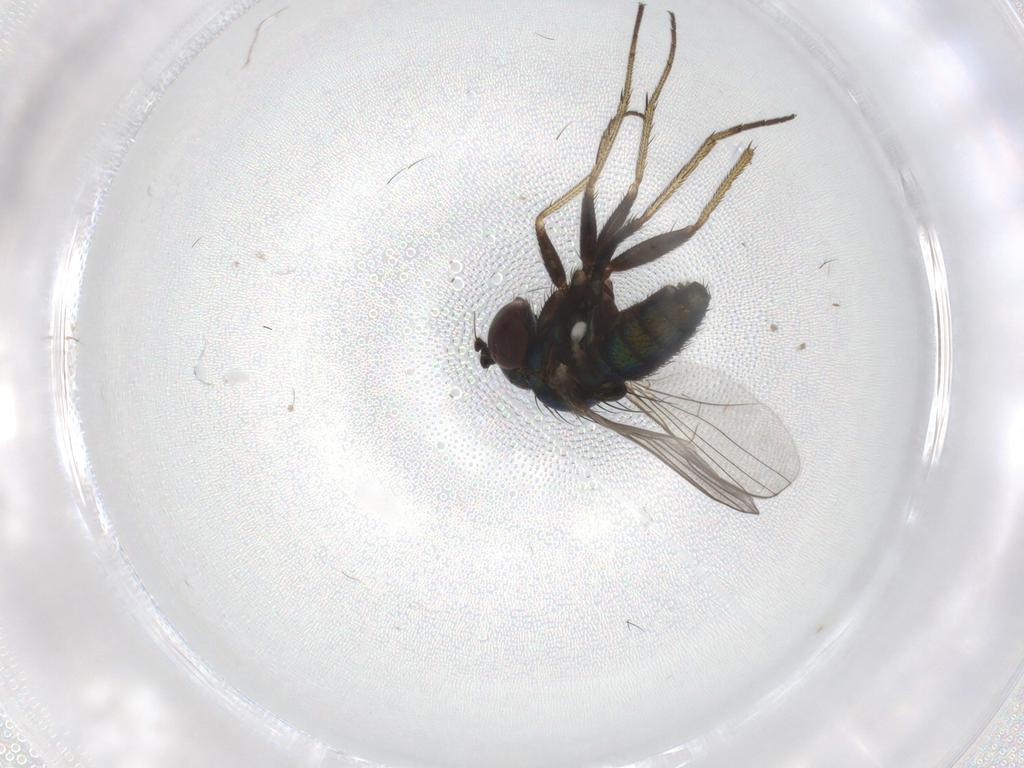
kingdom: Animalia
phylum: Arthropoda
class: Insecta
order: Diptera
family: Dolichopodidae
